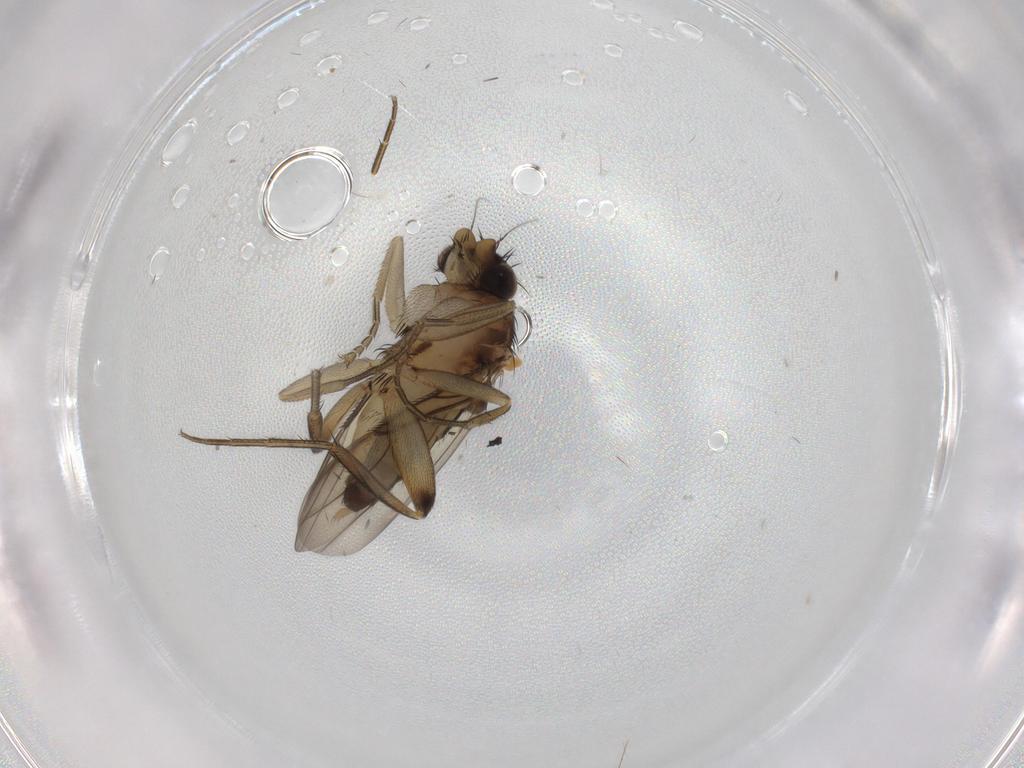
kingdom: Animalia
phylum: Arthropoda
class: Insecta
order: Diptera
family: Phoridae
